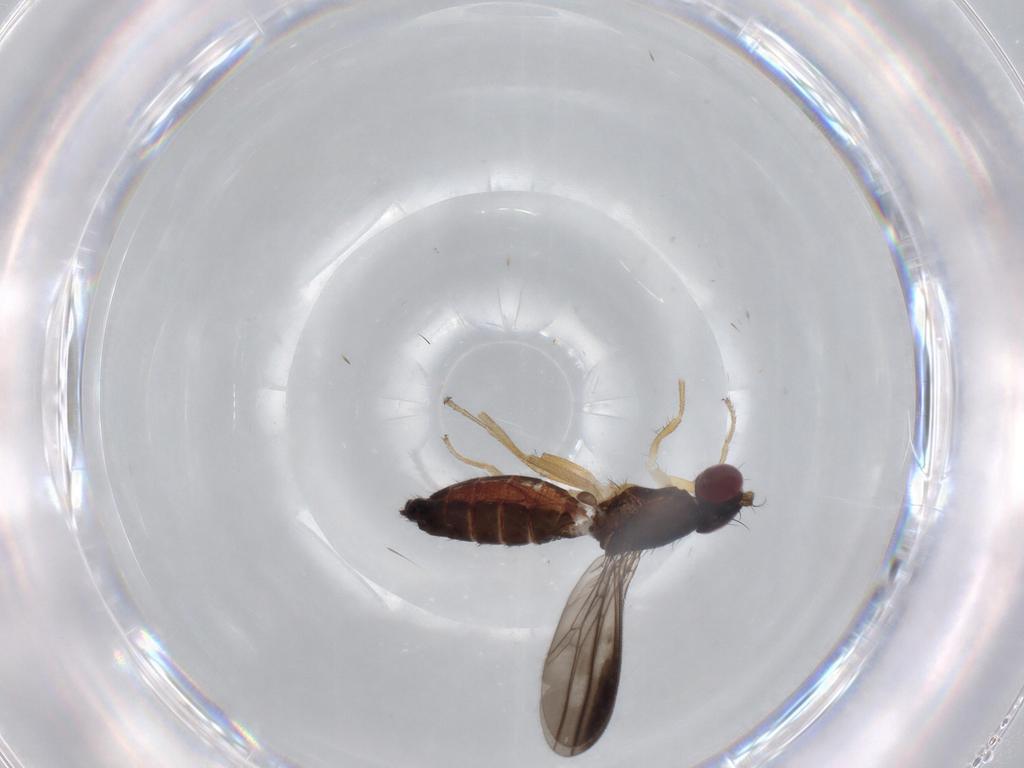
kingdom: Animalia
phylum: Arthropoda
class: Insecta
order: Diptera
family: Anthomyzidae
